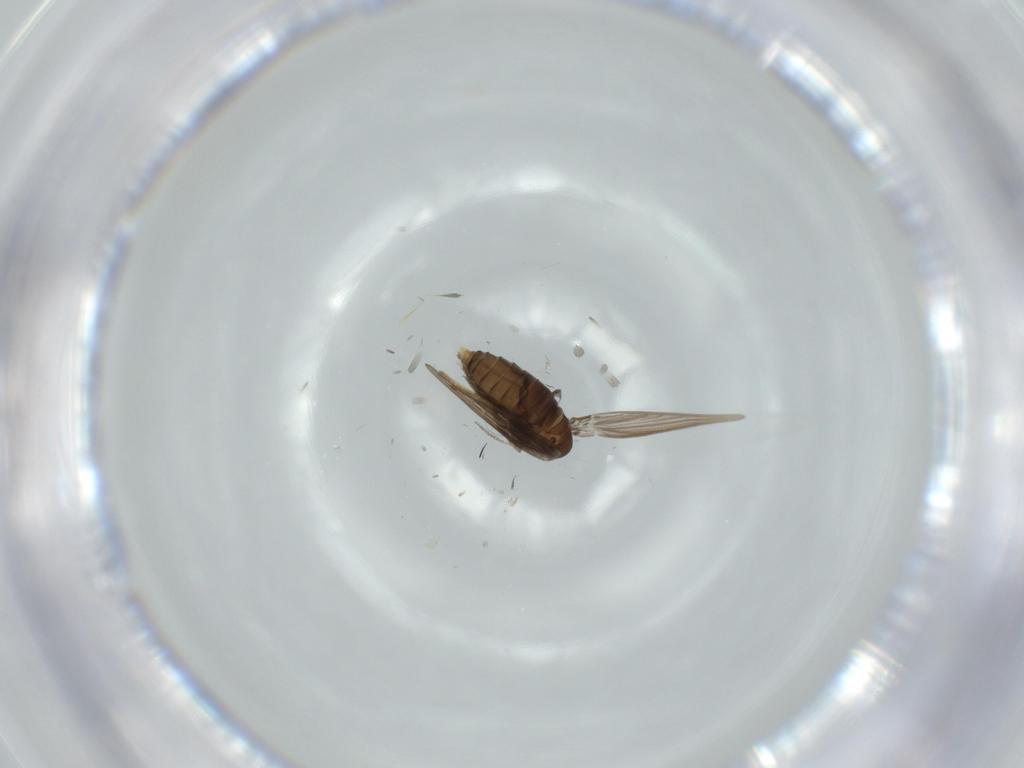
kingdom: Animalia
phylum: Arthropoda
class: Insecta
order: Diptera
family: Psychodidae
